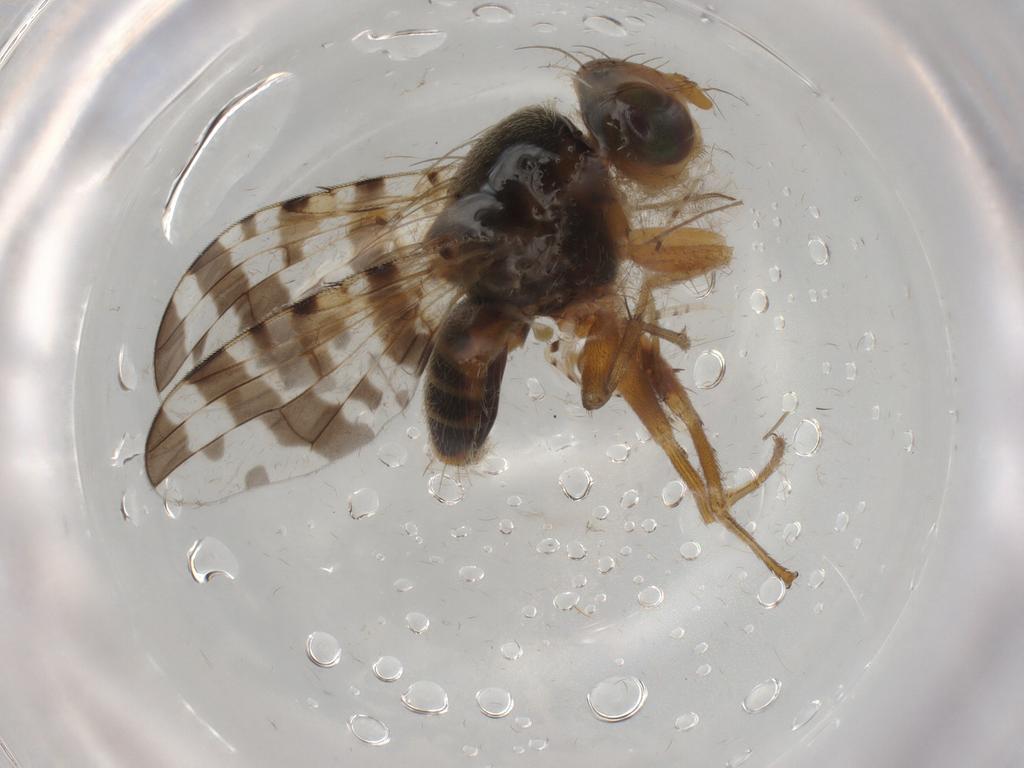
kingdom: Animalia
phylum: Arthropoda
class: Insecta
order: Diptera
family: Tephritidae
